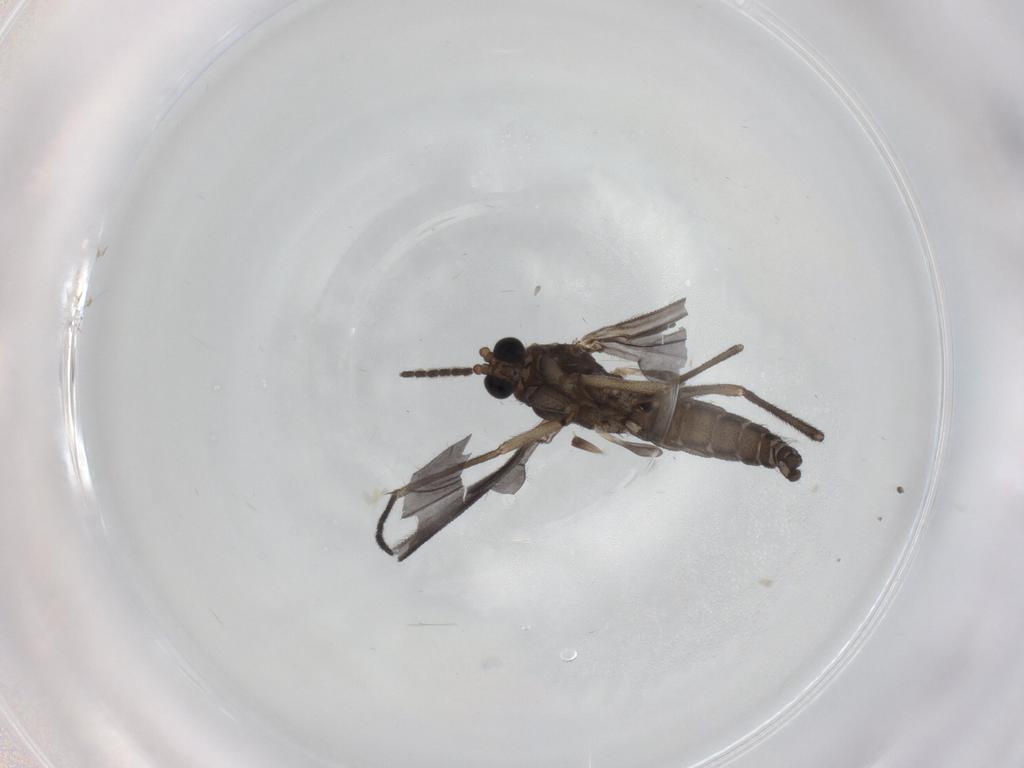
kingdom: Animalia
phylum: Arthropoda
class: Insecta
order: Diptera
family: Sciaridae
